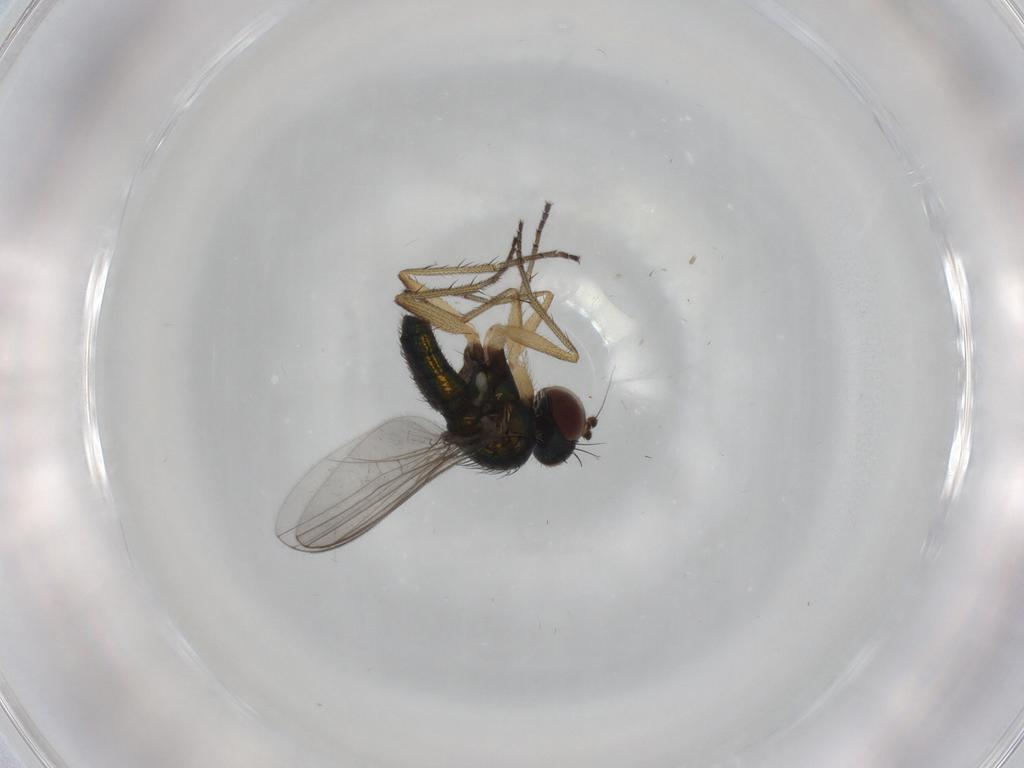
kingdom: Animalia
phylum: Arthropoda
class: Insecta
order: Diptera
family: Dolichopodidae
